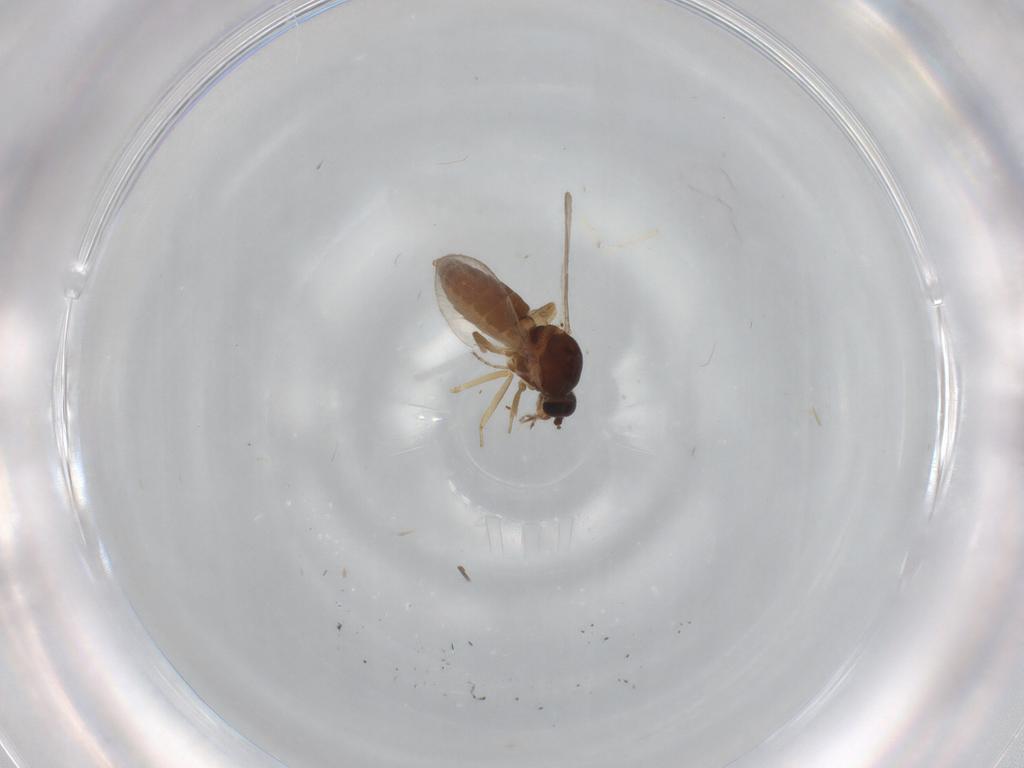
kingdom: Animalia
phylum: Arthropoda
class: Insecta
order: Diptera
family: Ceratopogonidae
